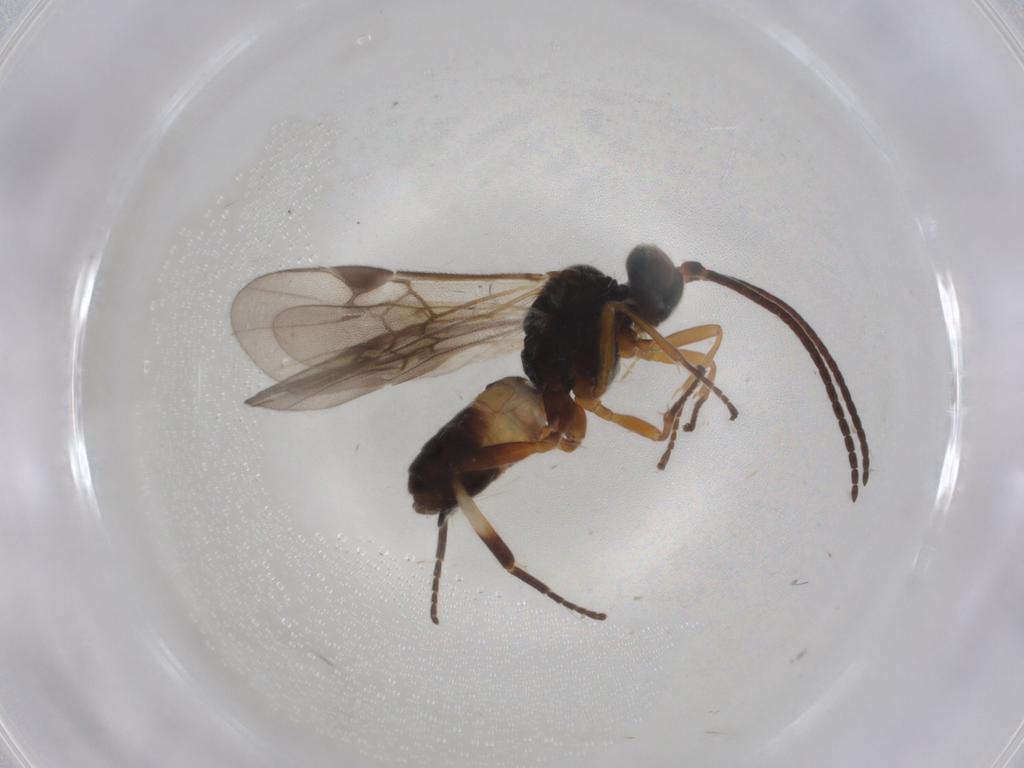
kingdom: Animalia
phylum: Arthropoda
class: Insecta
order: Hymenoptera
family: Braconidae
